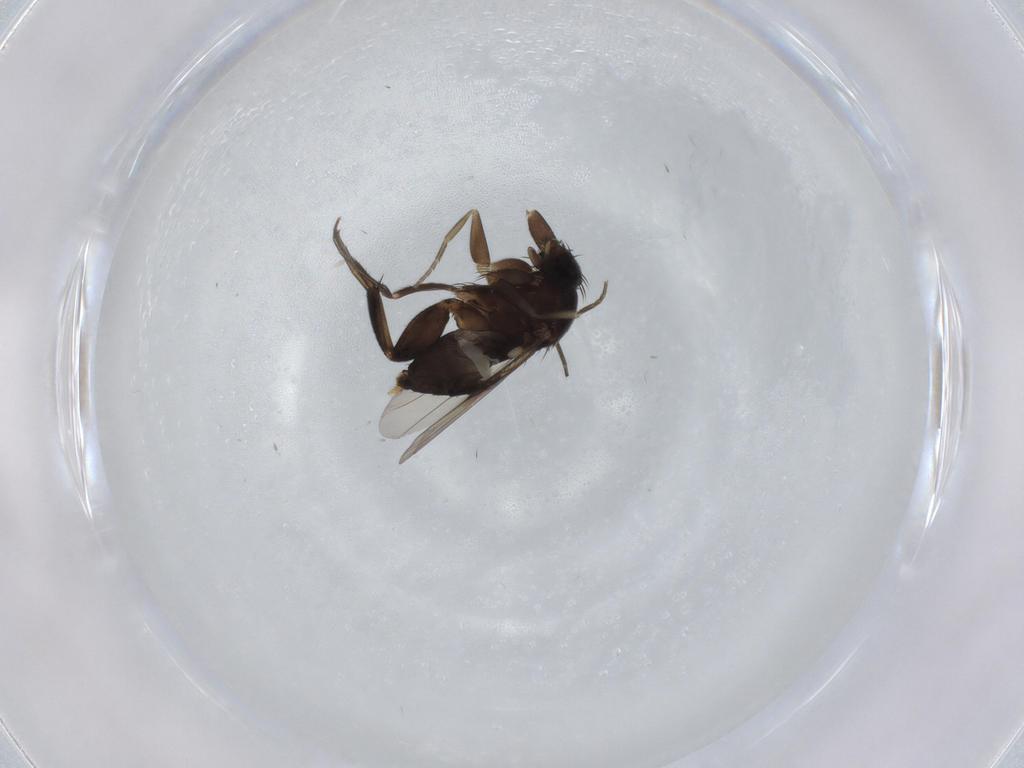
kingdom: Animalia
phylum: Arthropoda
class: Insecta
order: Diptera
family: Phoridae
